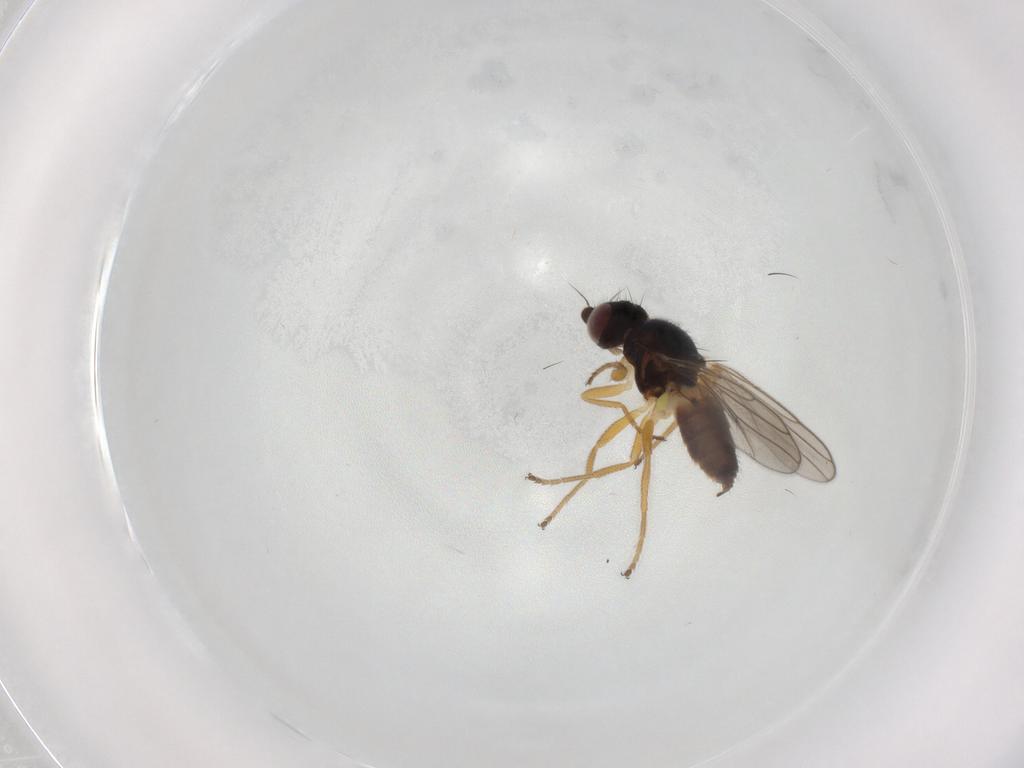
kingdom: Animalia
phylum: Arthropoda
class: Insecta
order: Diptera
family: Chloropidae
